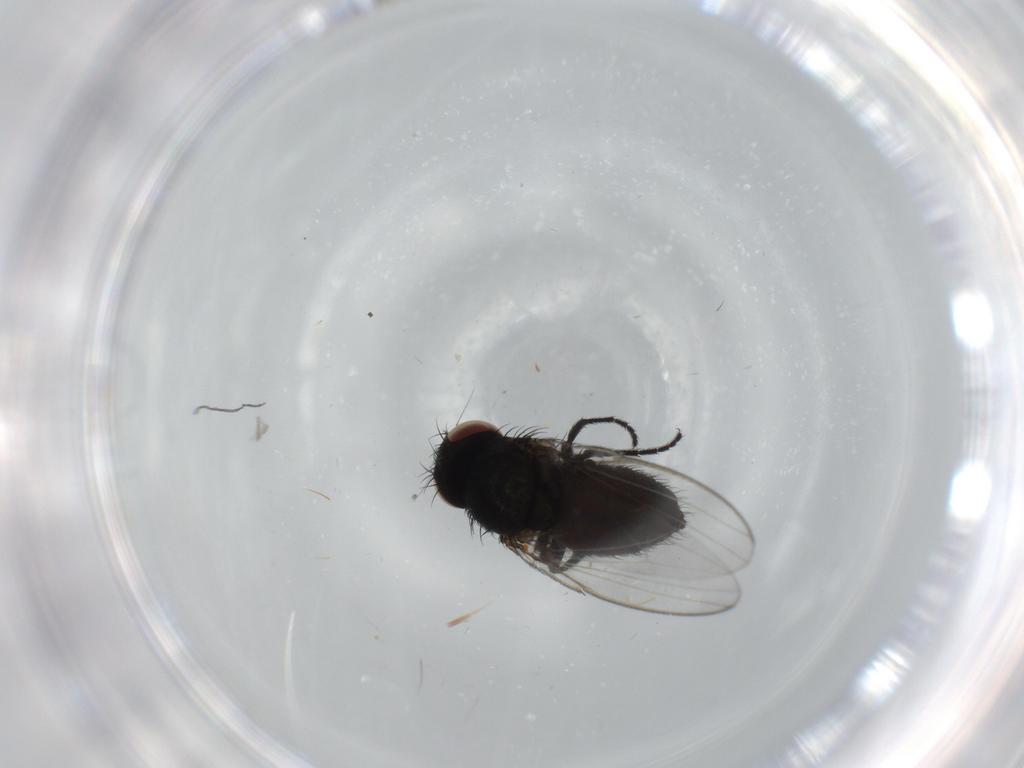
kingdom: Animalia
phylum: Arthropoda
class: Insecta
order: Diptera
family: Milichiidae
